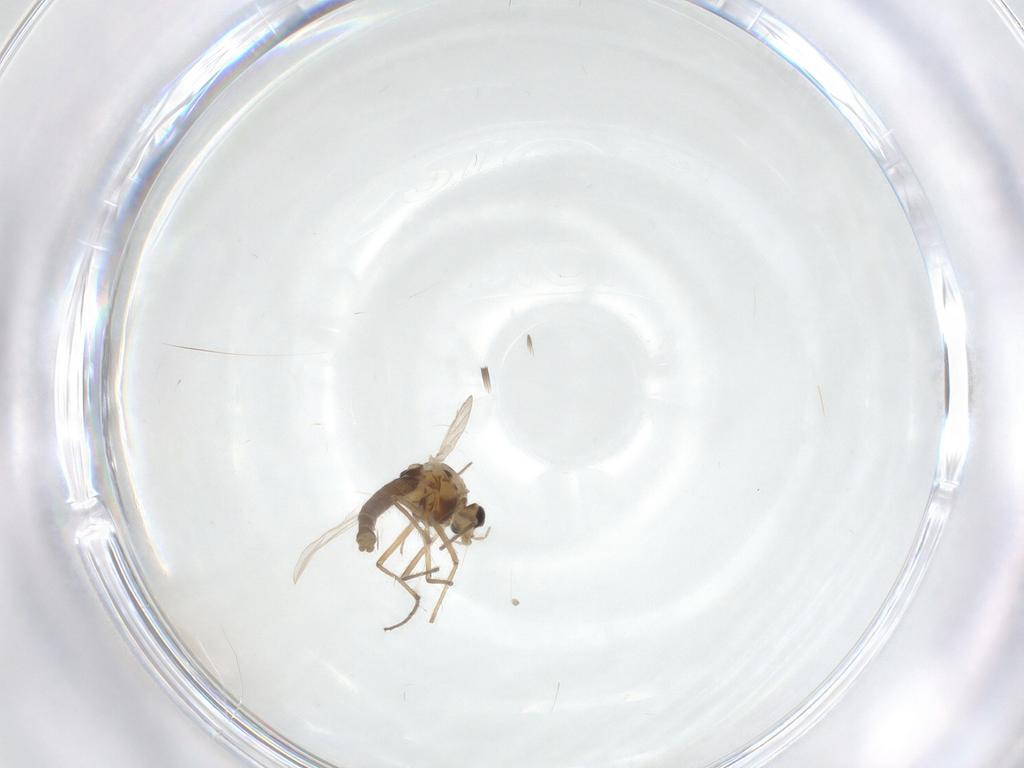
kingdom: Animalia
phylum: Arthropoda
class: Insecta
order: Diptera
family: Chironomidae
